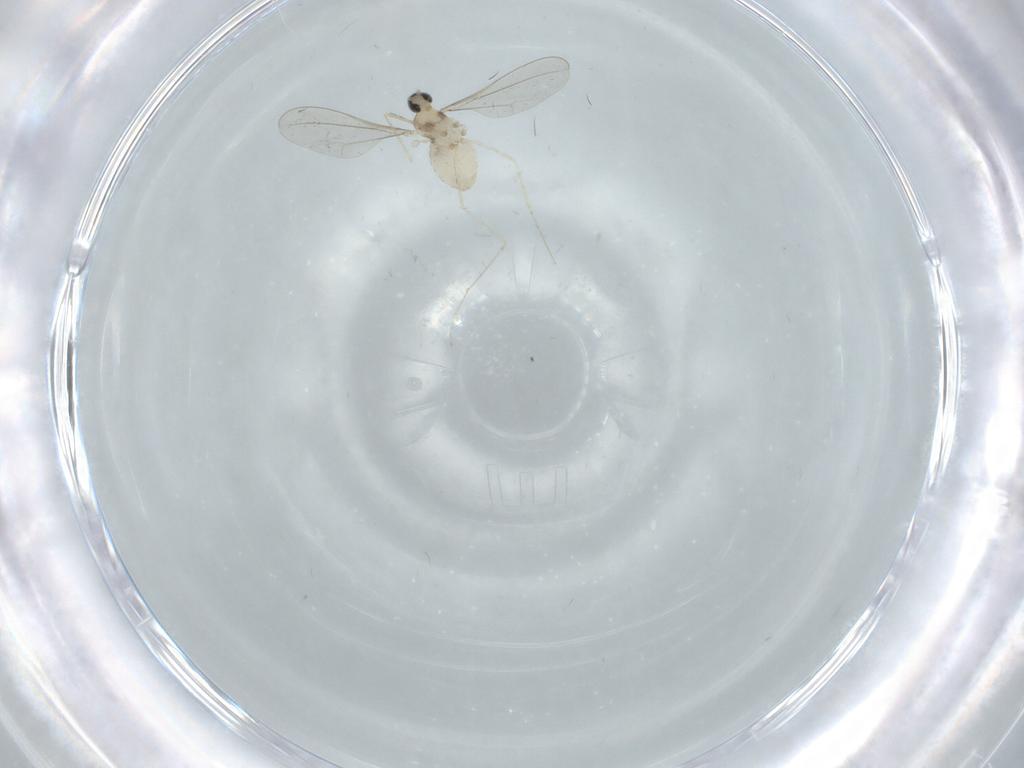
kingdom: Animalia
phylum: Arthropoda
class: Insecta
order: Diptera
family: Cecidomyiidae
